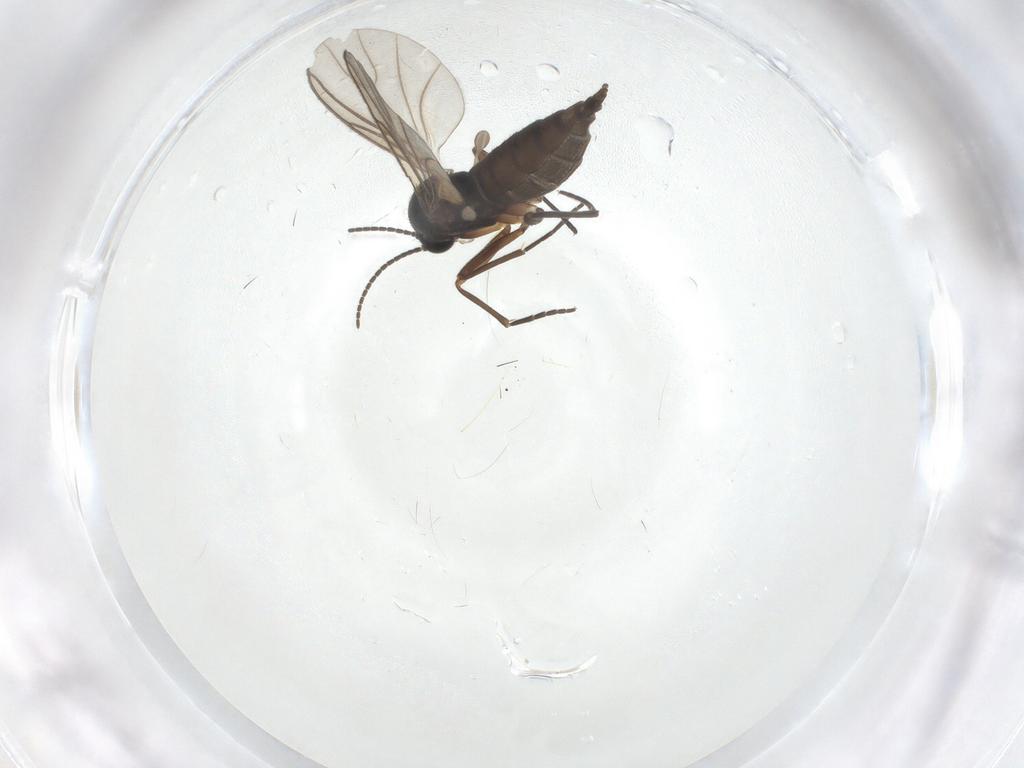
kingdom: Animalia
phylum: Arthropoda
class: Insecta
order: Diptera
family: Sciaridae
